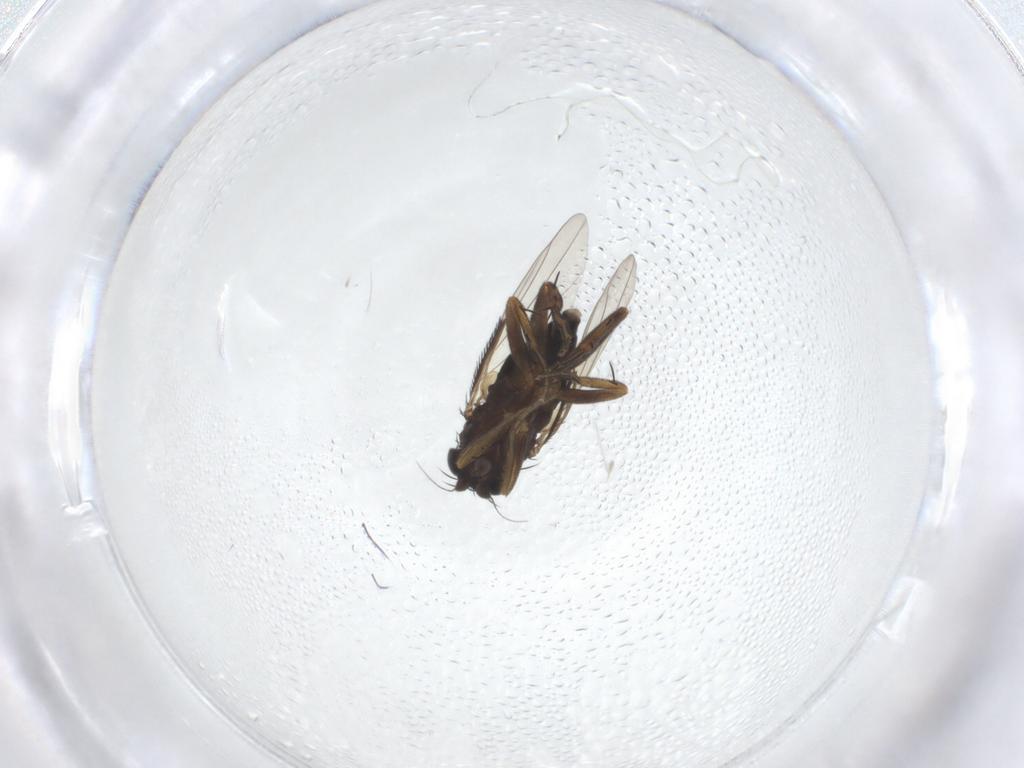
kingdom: Animalia
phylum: Arthropoda
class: Insecta
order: Diptera
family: Phoridae
